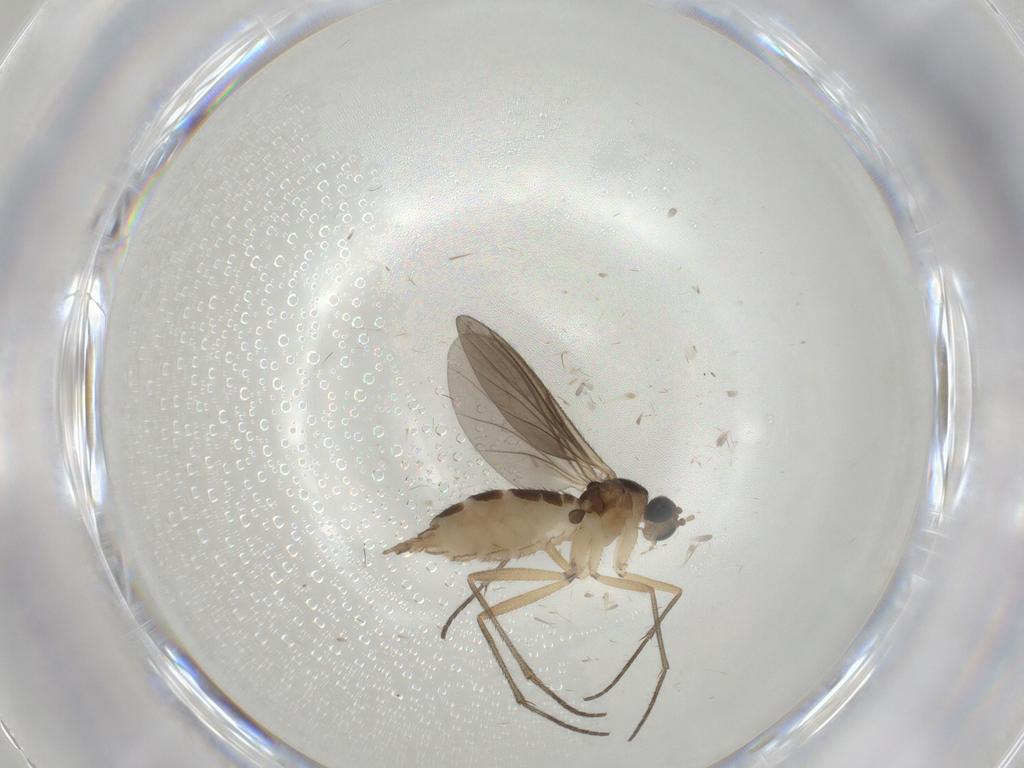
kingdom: Animalia
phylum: Arthropoda
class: Insecta
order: Diptera
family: Sciaridae
